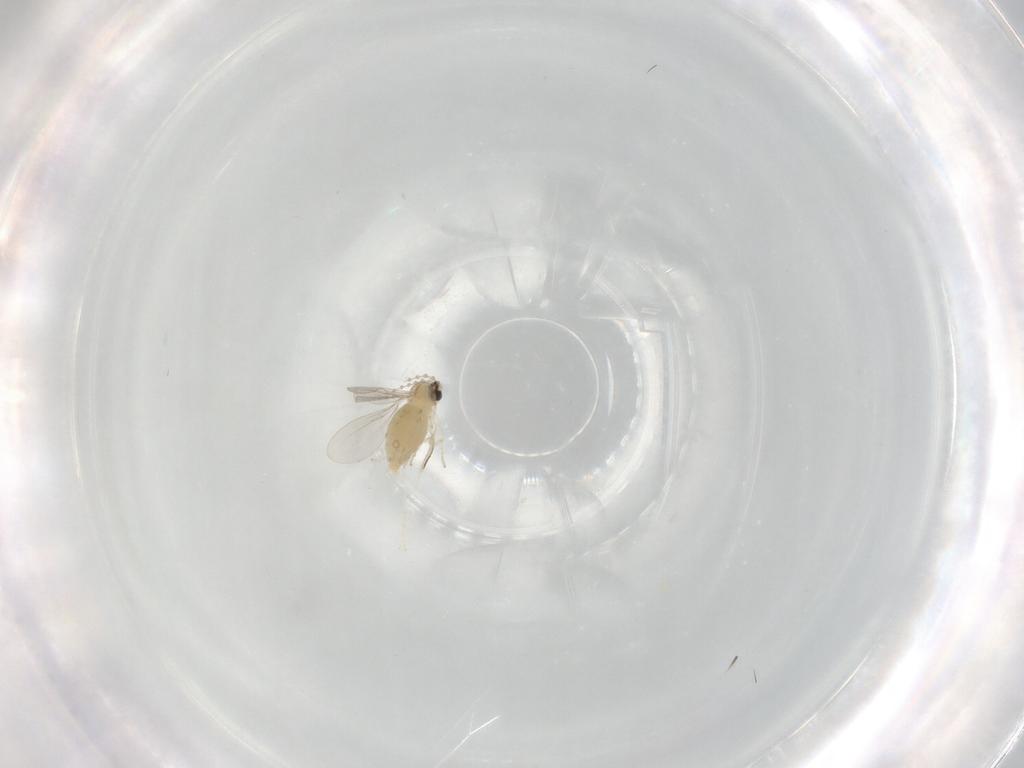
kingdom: Animalia
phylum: Arthropoda
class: Insecta
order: Diptera
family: Cecidomyiidae
